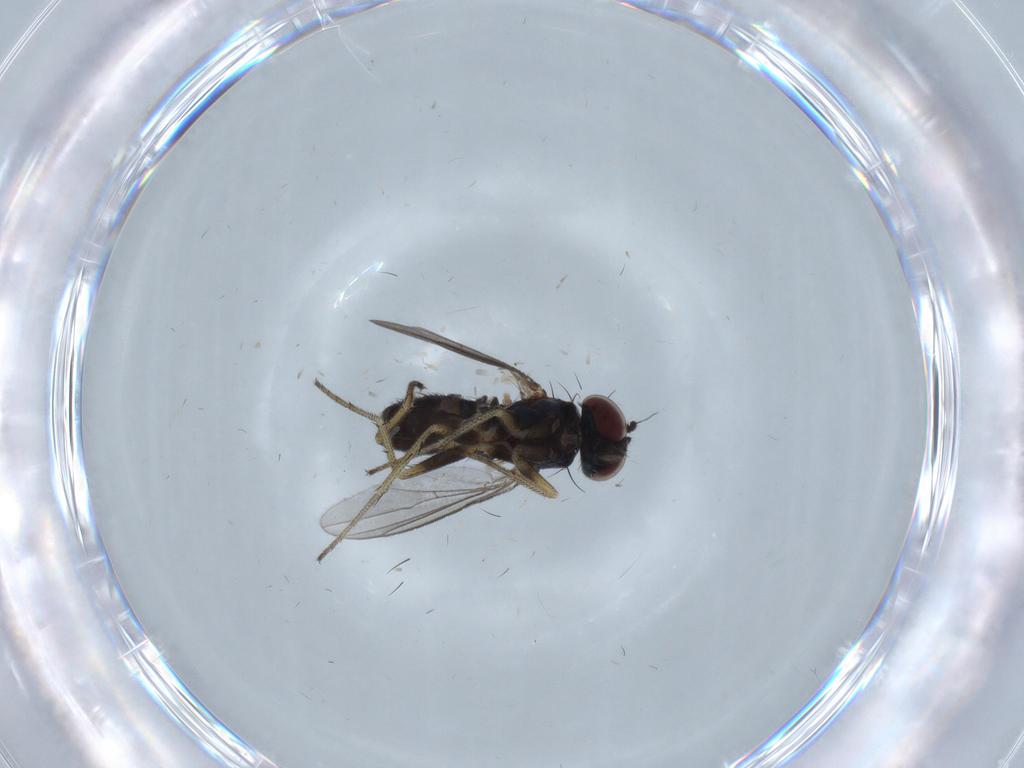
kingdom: Animalia
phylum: Arthropoda
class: Insecta
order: Diptera
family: Dolichopodidae
